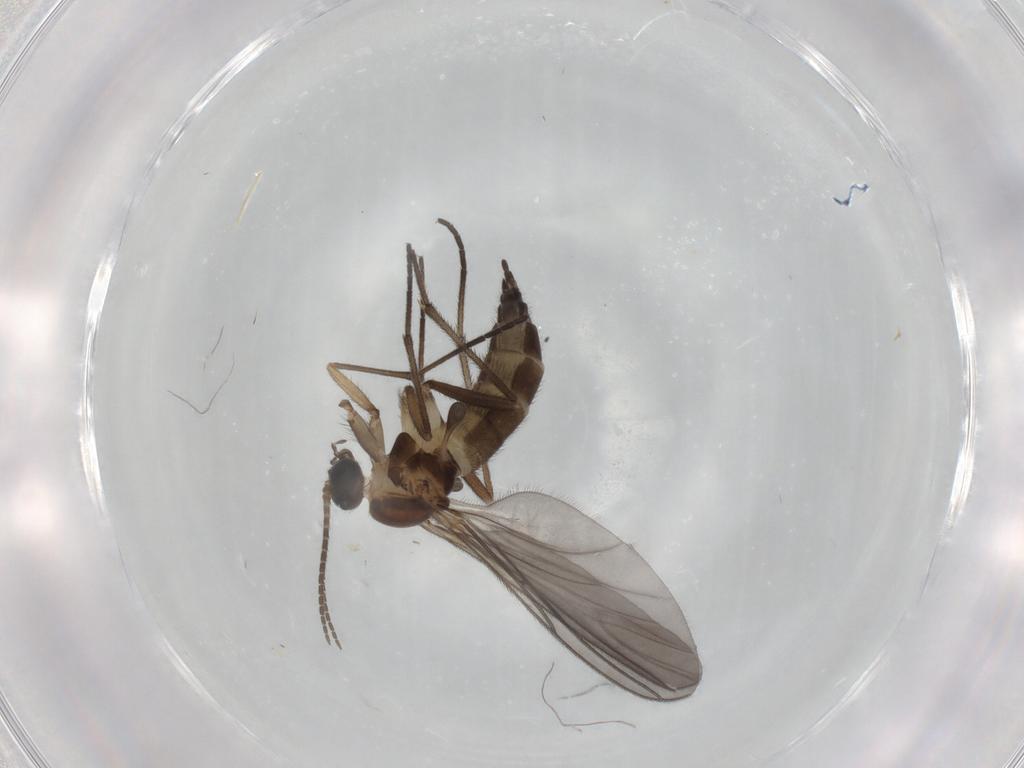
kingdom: Animalia
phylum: Arthropoda
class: Insecta
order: Diptera
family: Sciaridae
